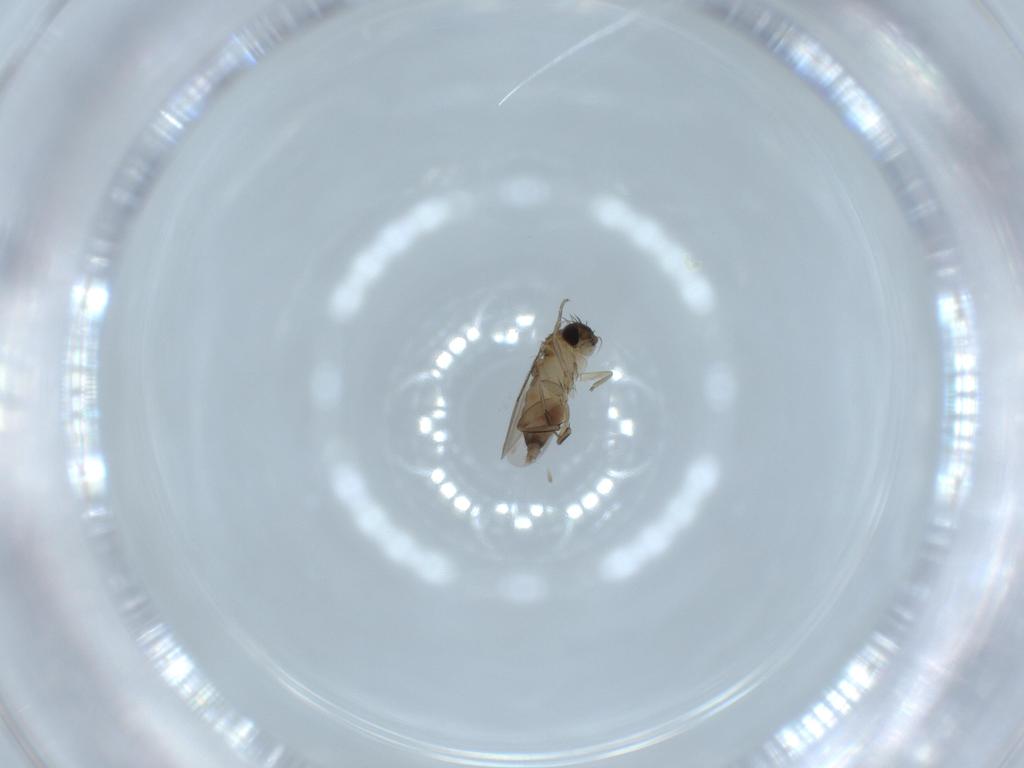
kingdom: Animalia
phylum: Arthropoda
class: Insecta
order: Diptera
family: Phoridae
